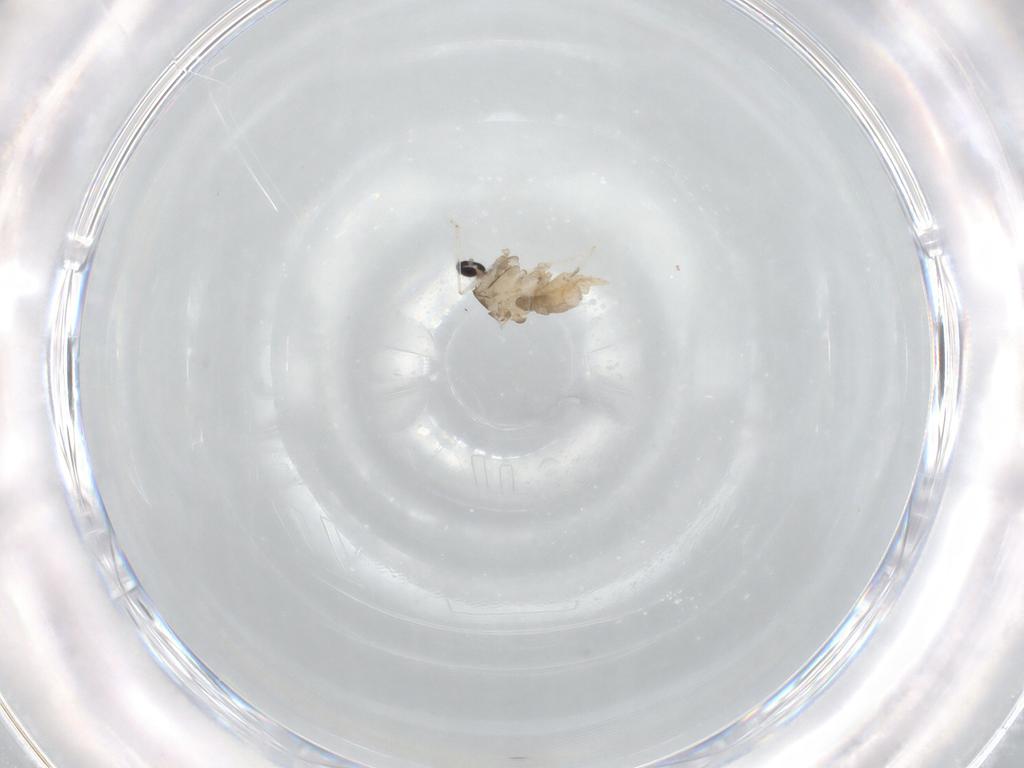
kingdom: Animalia
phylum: Arthropoda
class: Insecta
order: Diptera
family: Cecidomyiidae
